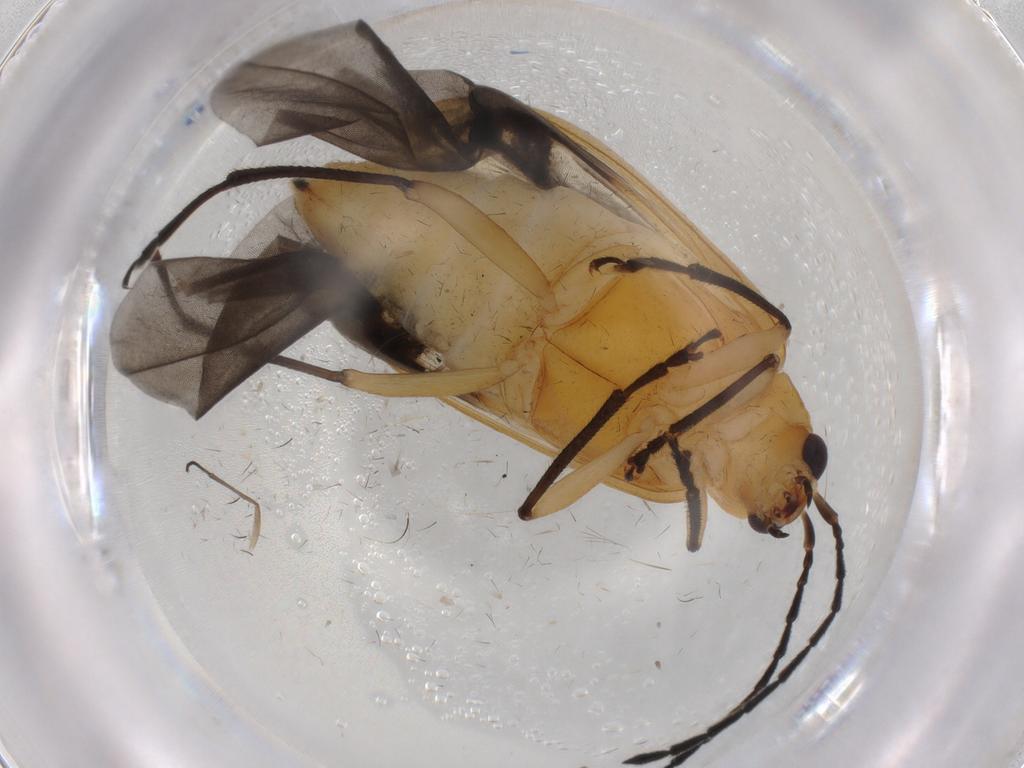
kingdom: Animalia
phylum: Arthropoda
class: Insecta
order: Coleoptera
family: Chrysomelidae
